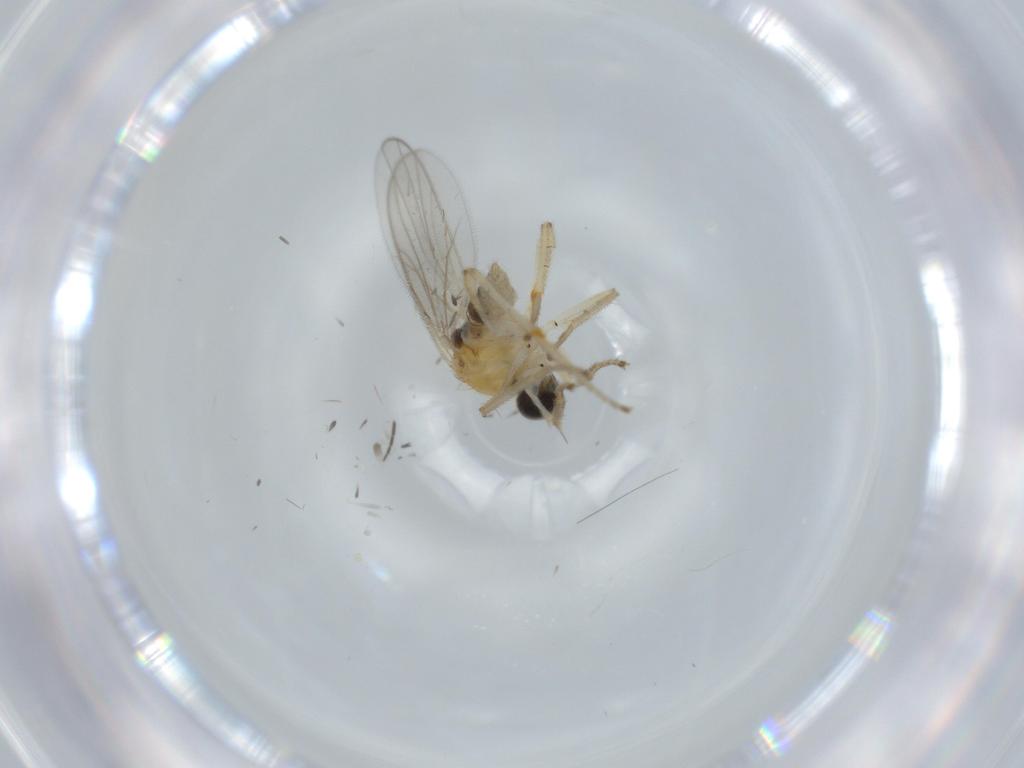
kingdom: Animalia
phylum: Arthropoda
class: Insecta
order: Diptera
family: Hybotidae
